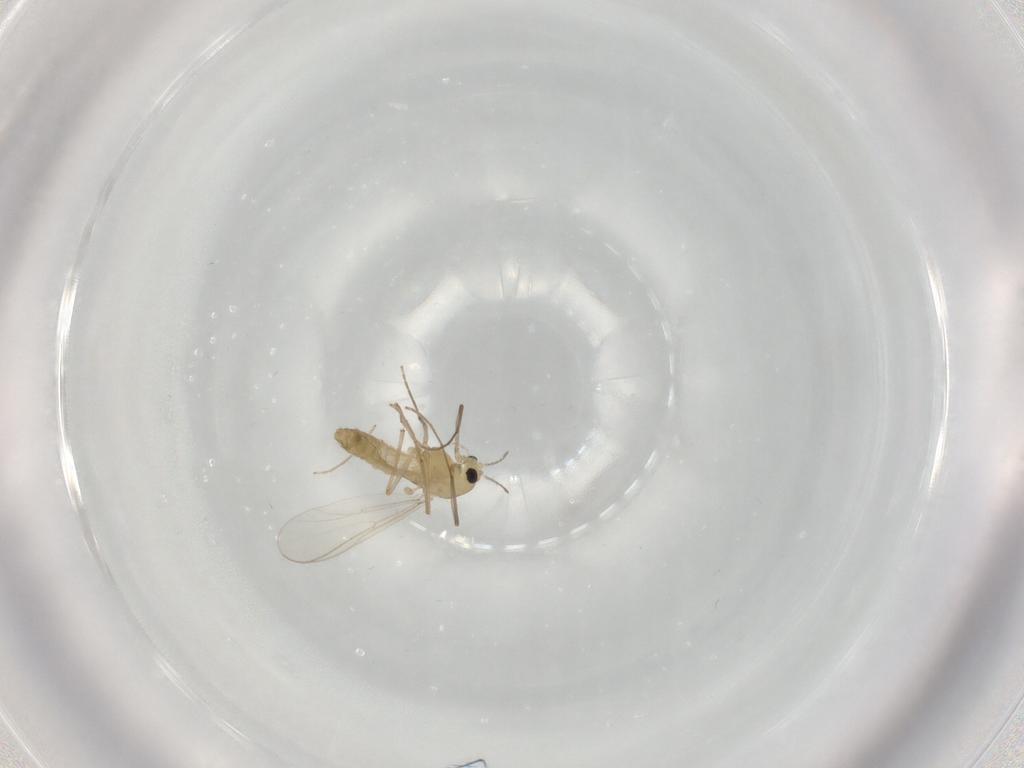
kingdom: Animalia
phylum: Arthropoda
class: Insecta
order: Diptera
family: Chironomidae
